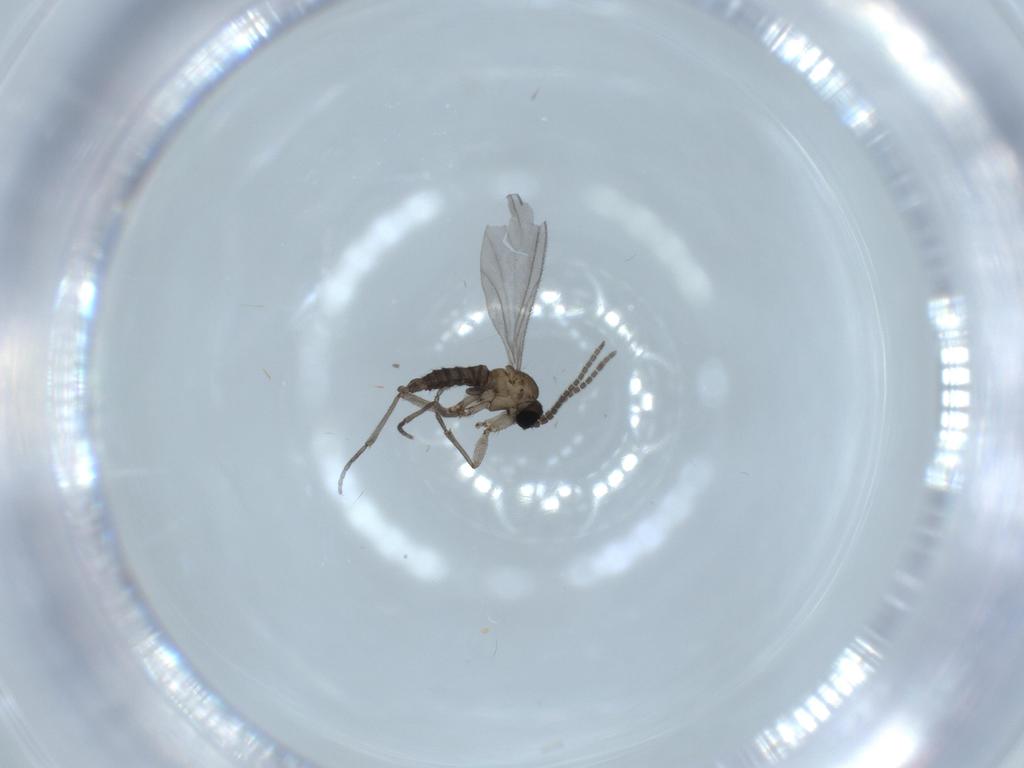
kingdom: Animalia
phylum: Arthropoda
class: Insecta
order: Diptera
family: Sciaridae
